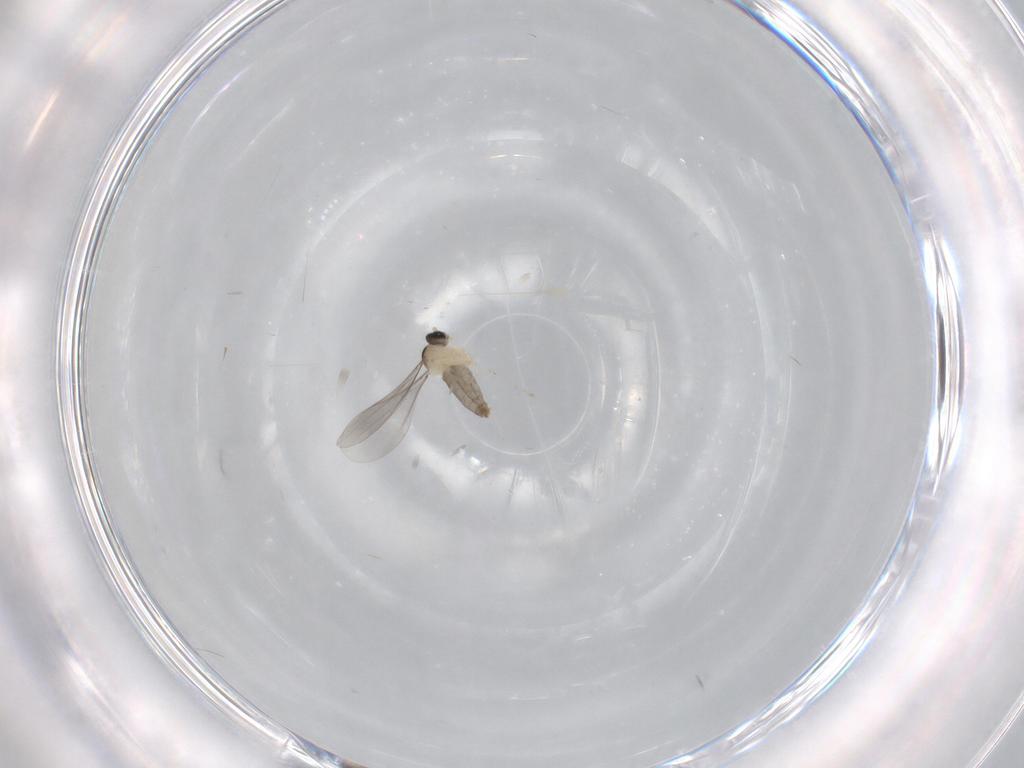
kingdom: Animalia
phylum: Arthropoda
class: Insecta
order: Diptera
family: Cecidomyiidae
